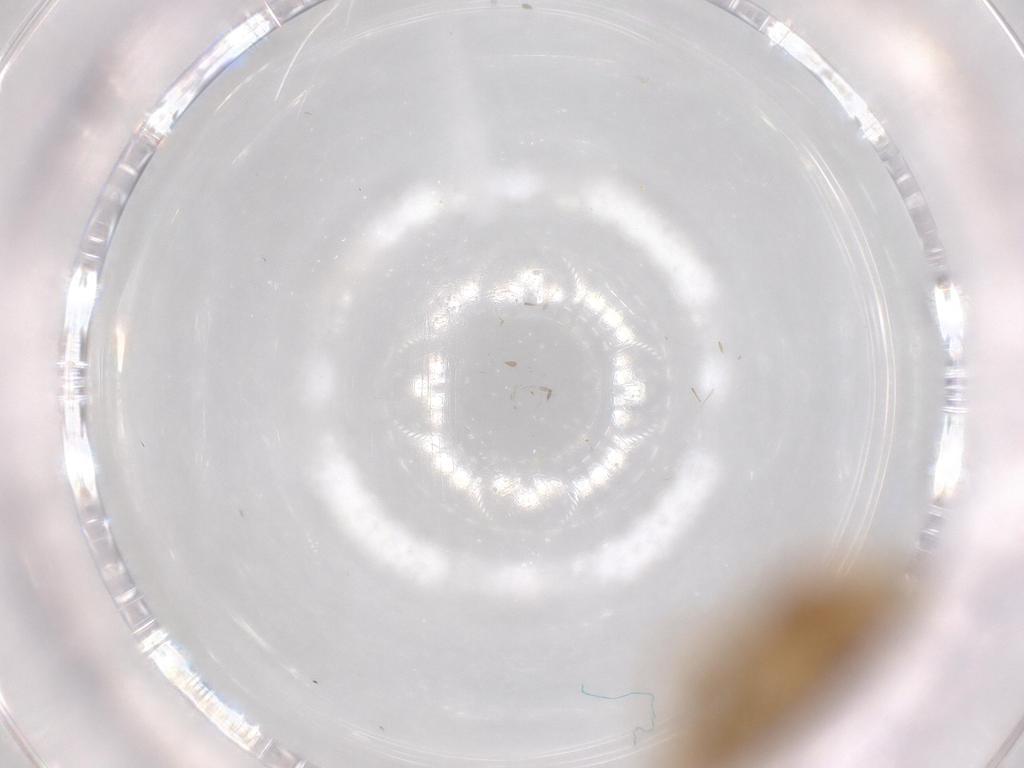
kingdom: Animalia
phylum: Arthropoda
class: Insecta
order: Hemiptera
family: Cicadellidae
